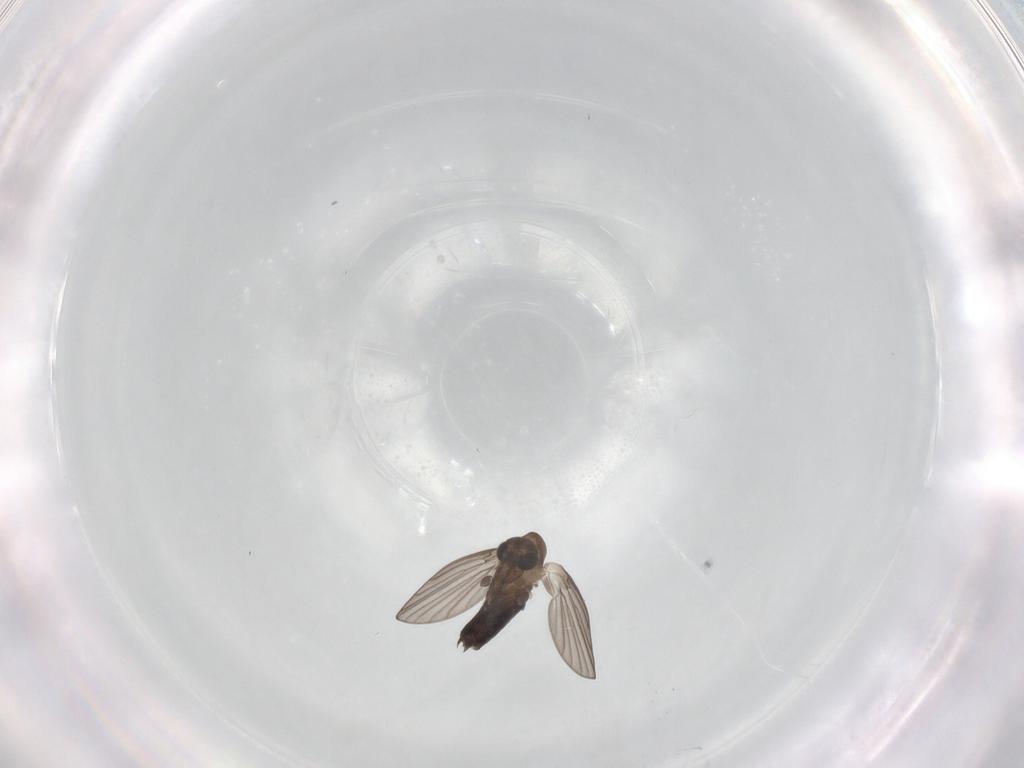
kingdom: Animalia
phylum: Arthropoda
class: Insecta
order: Diptera
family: Psychodidae
